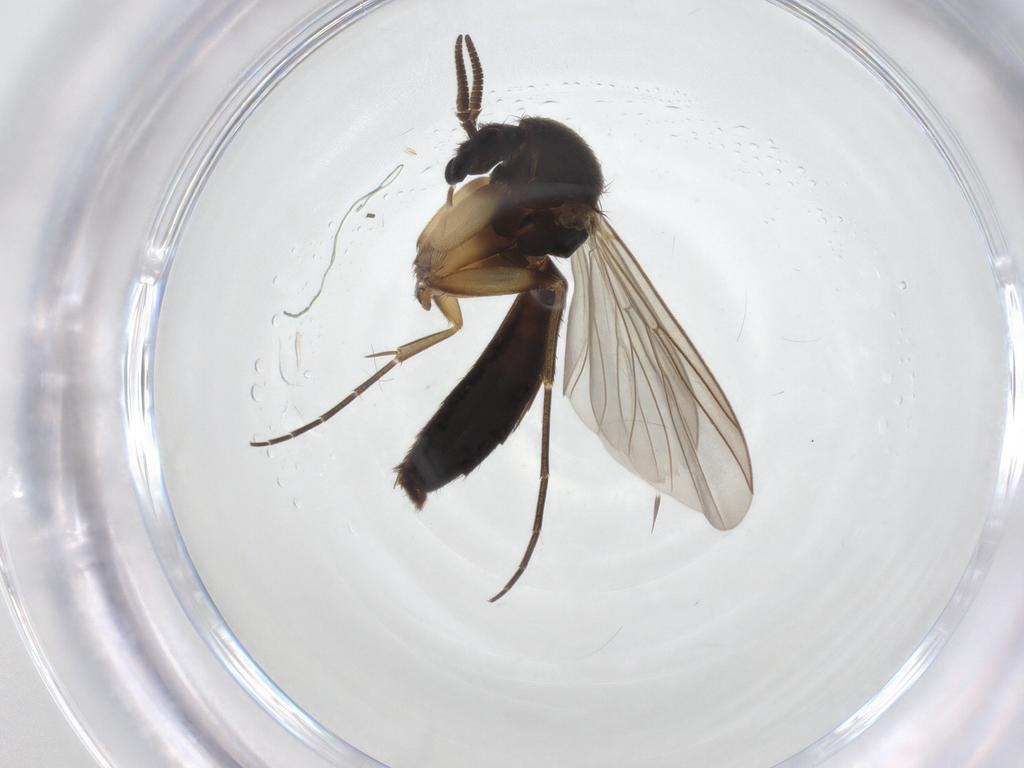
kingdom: Animalia
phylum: Arthropoda
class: Insecta
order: Diptera
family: Mycetophilidae
